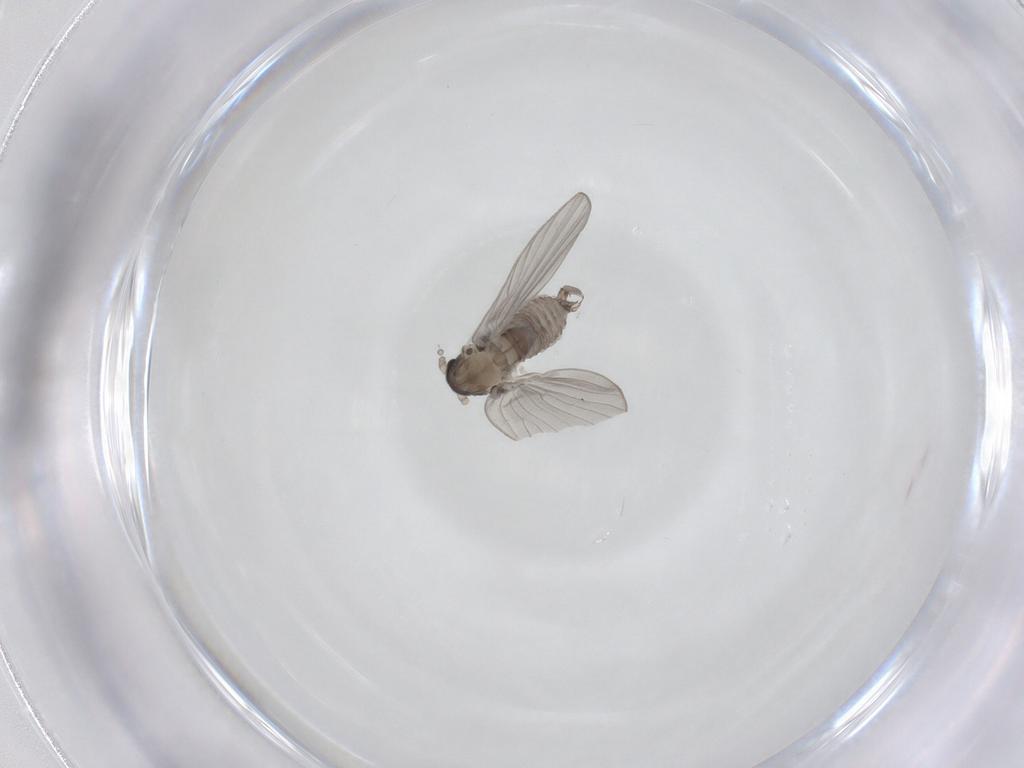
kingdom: Animalia
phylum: Arthropoda
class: Insecta
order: Diptera
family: Psychodidae
